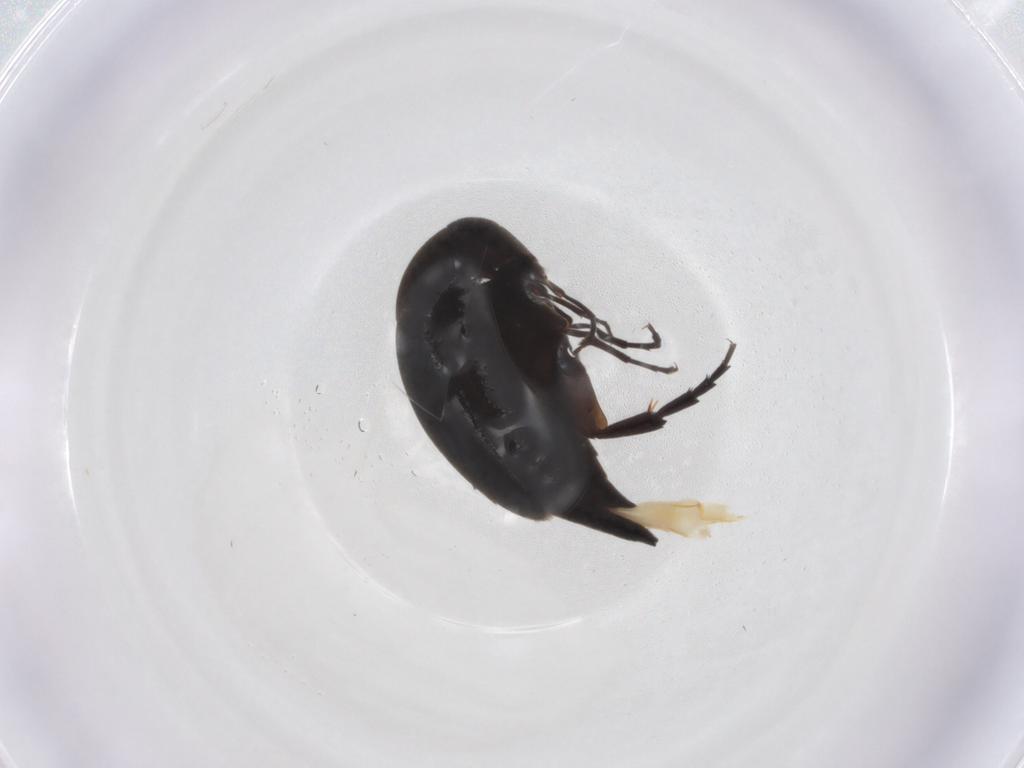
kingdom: Animalia
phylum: Arthropoda
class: Insecta
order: Coleoptera
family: Mordellidae
